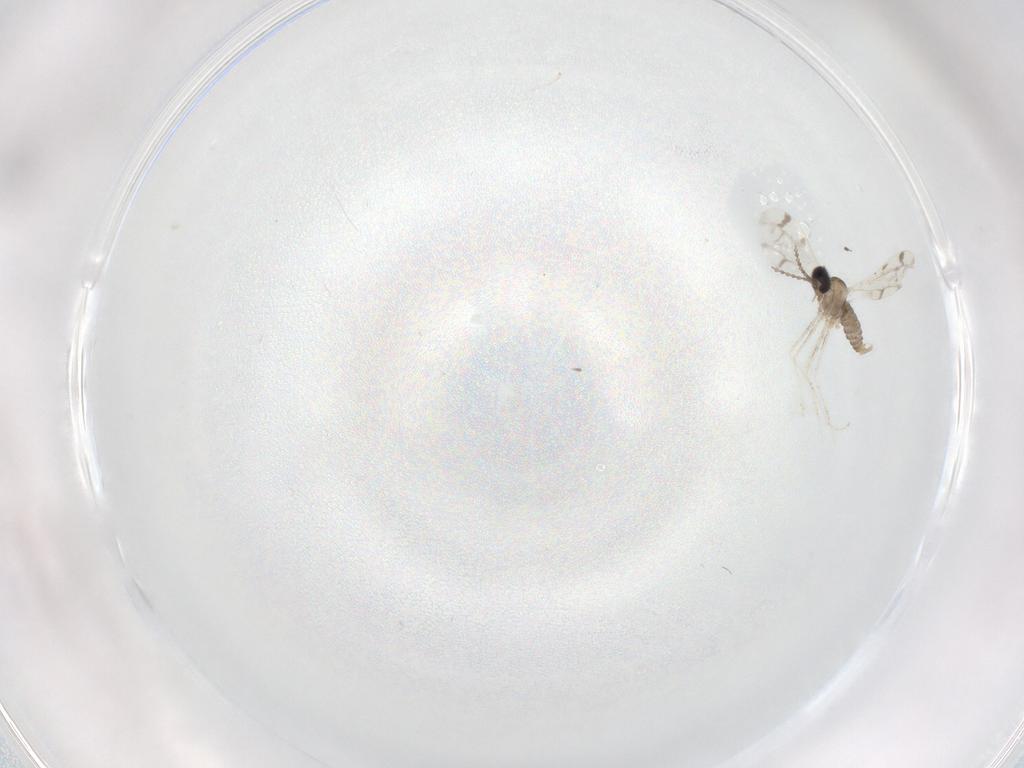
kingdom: Animalia
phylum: Arthropoda
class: Insecta
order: Diptera
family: Cecidomyiidae
